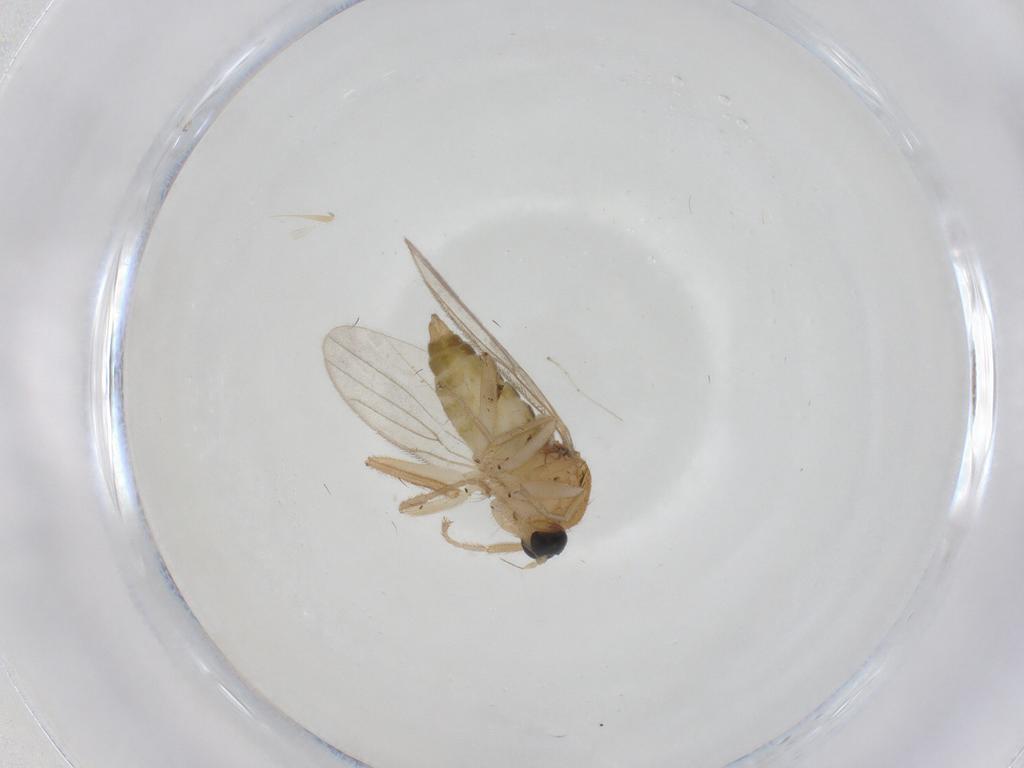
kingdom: Animalia
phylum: Arthropoda
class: Insecta
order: Diptera
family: Hybotidae
